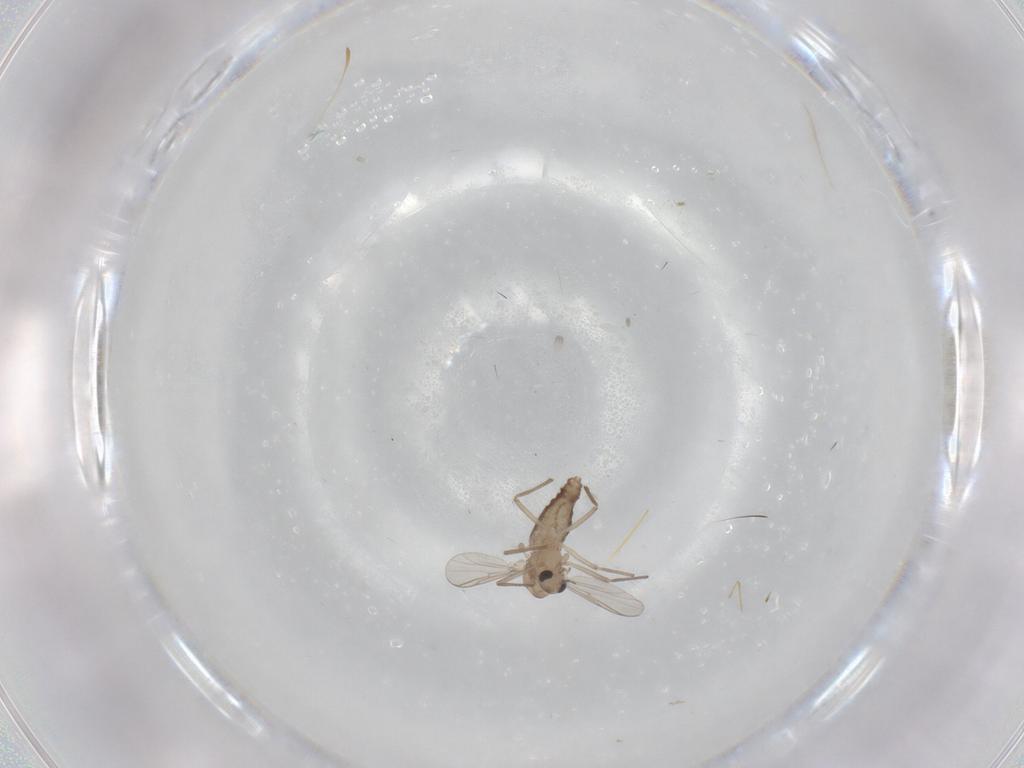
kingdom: Animalia
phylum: Arthropoda
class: Insecta
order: Diptera
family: Chironomidae
